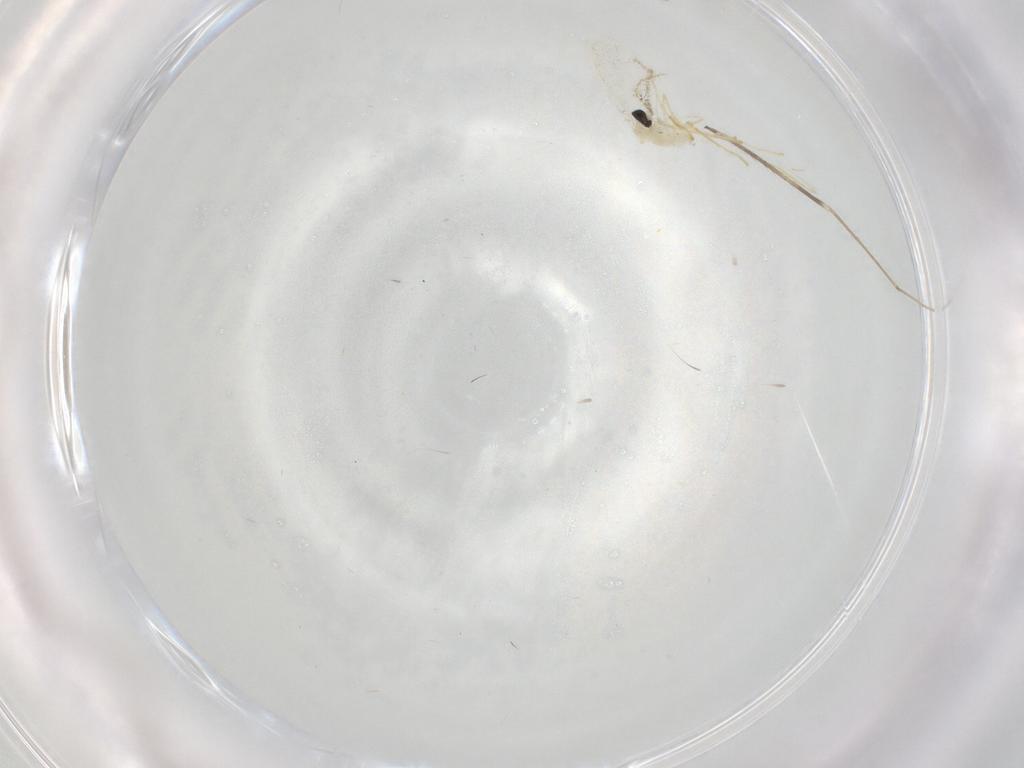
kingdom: Animalia
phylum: Arthropoda
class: Insecta
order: Diptera
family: Cecidomyiidae
